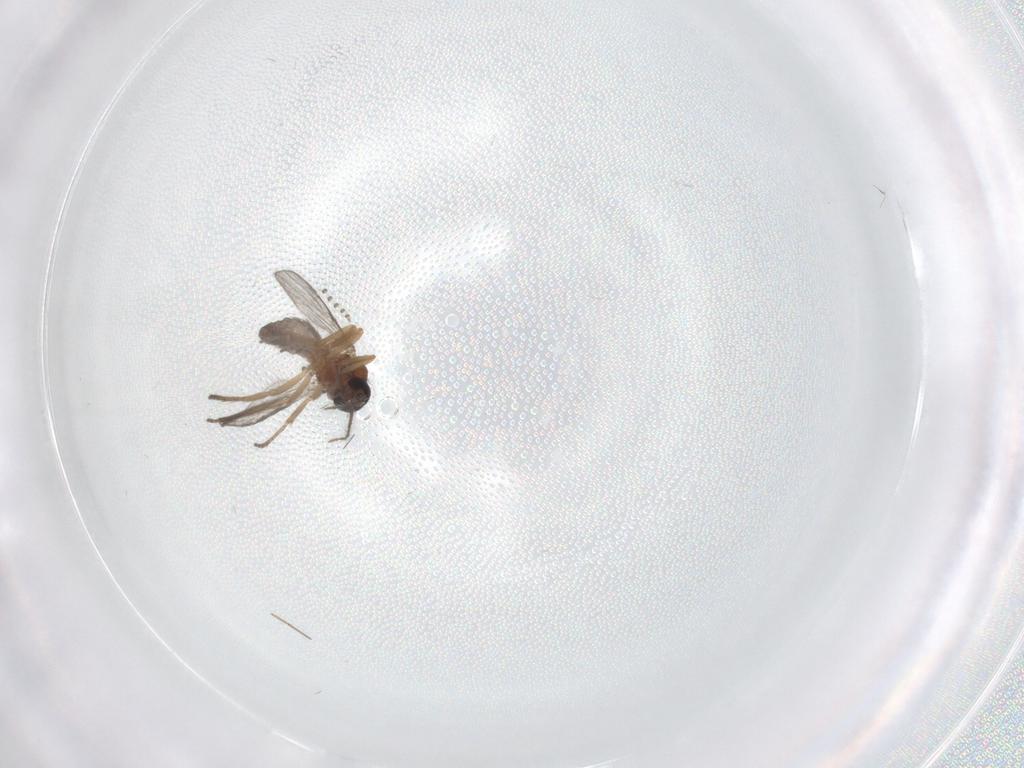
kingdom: Animalia
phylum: Arthropoda
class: Insecta
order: Diptera
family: Ceratopogonidae
